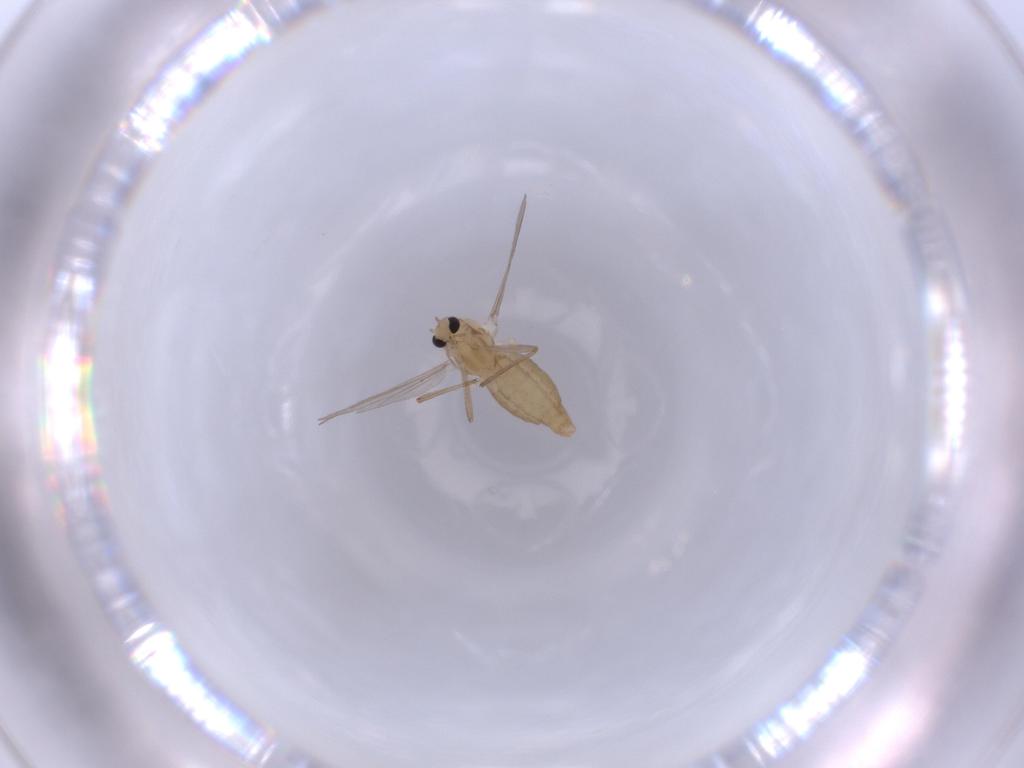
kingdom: Animalia
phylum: Arthropoda
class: Insecta
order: Diptera
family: Chironomidae
